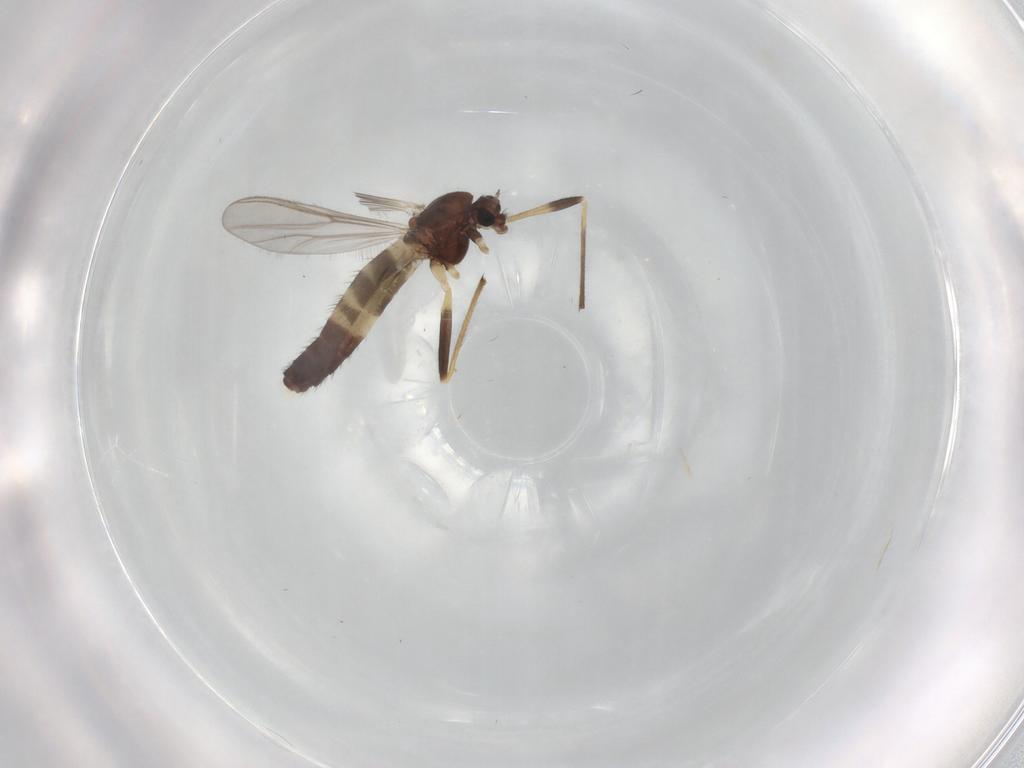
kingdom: Animalia
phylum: Arthropoda
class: Insecta
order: Diptera
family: Chironomidae
